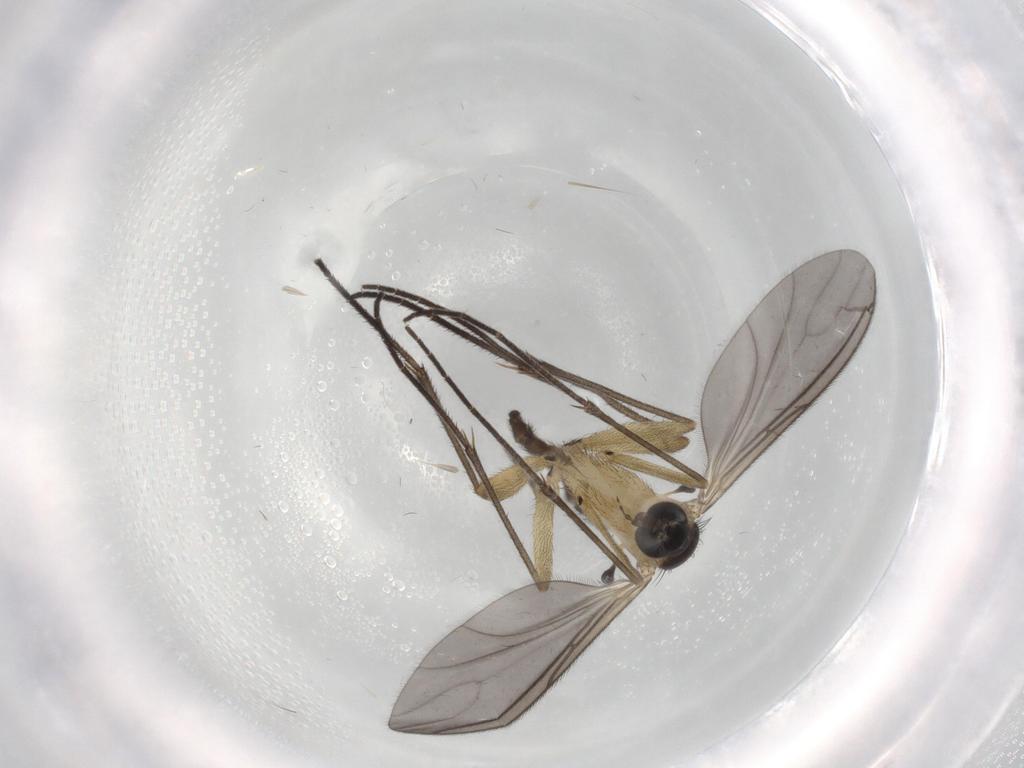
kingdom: Animalia
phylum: Arthropoda
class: Insecta
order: Diptera
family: Sciaridae
